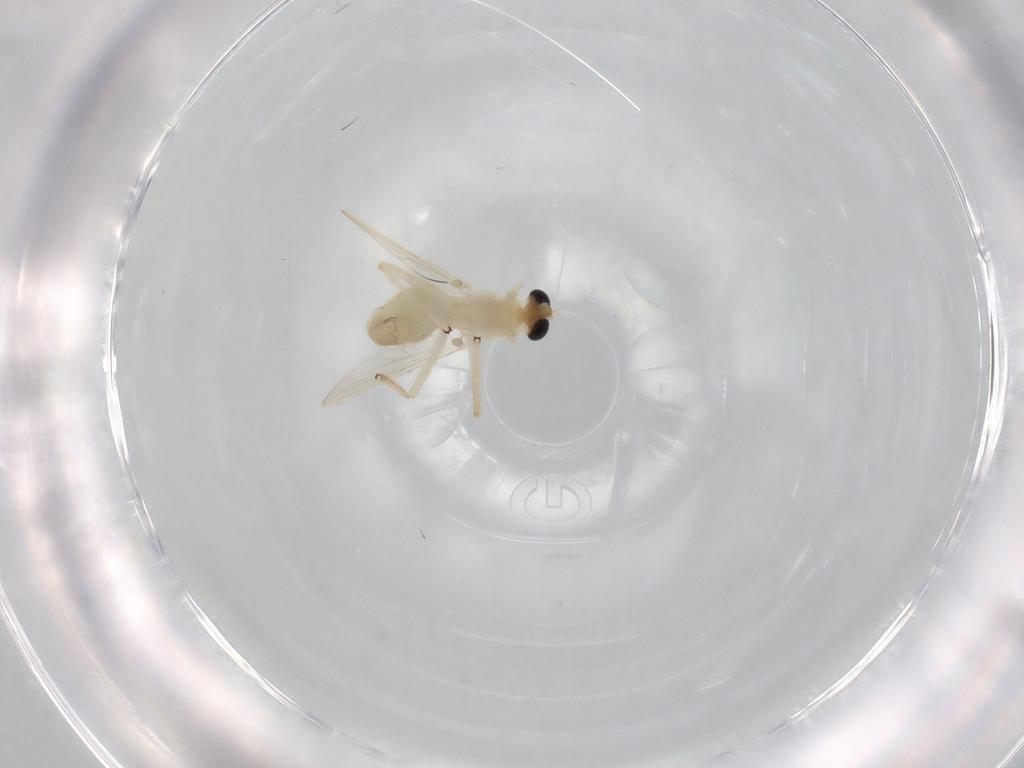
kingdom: Animalia
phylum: Arthropoda
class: Insecta
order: Diptera
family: Chironomidae
